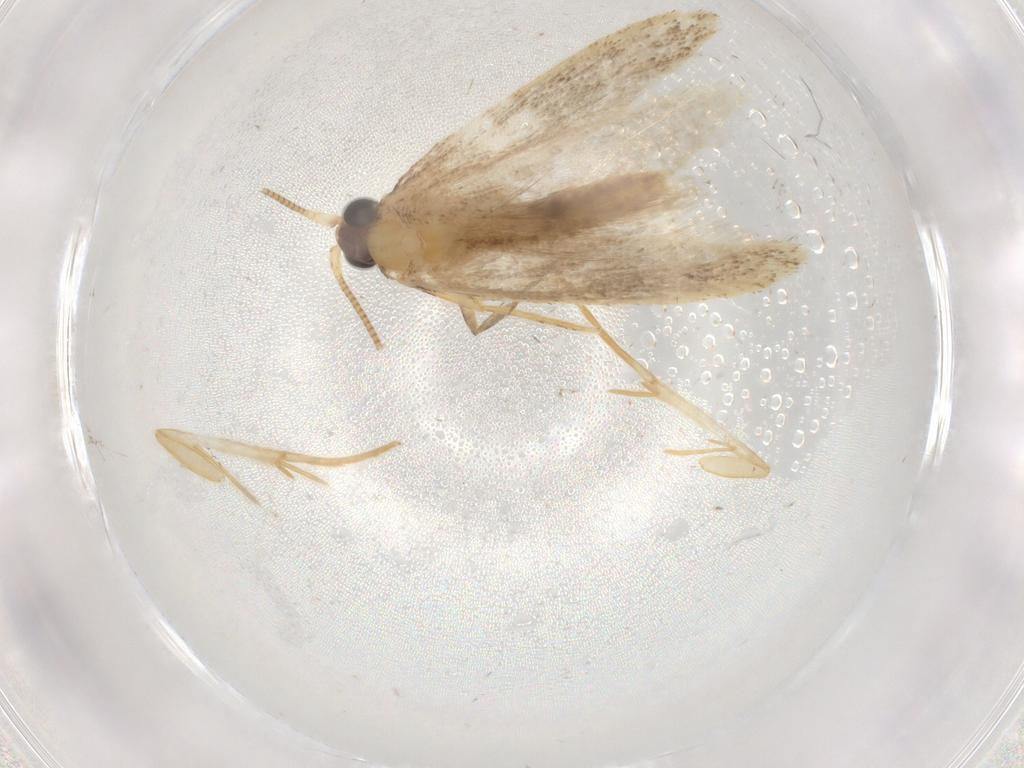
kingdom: Animalia
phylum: Arthropoda
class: Insecta
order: Lepidoptera
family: Nepticulidae
